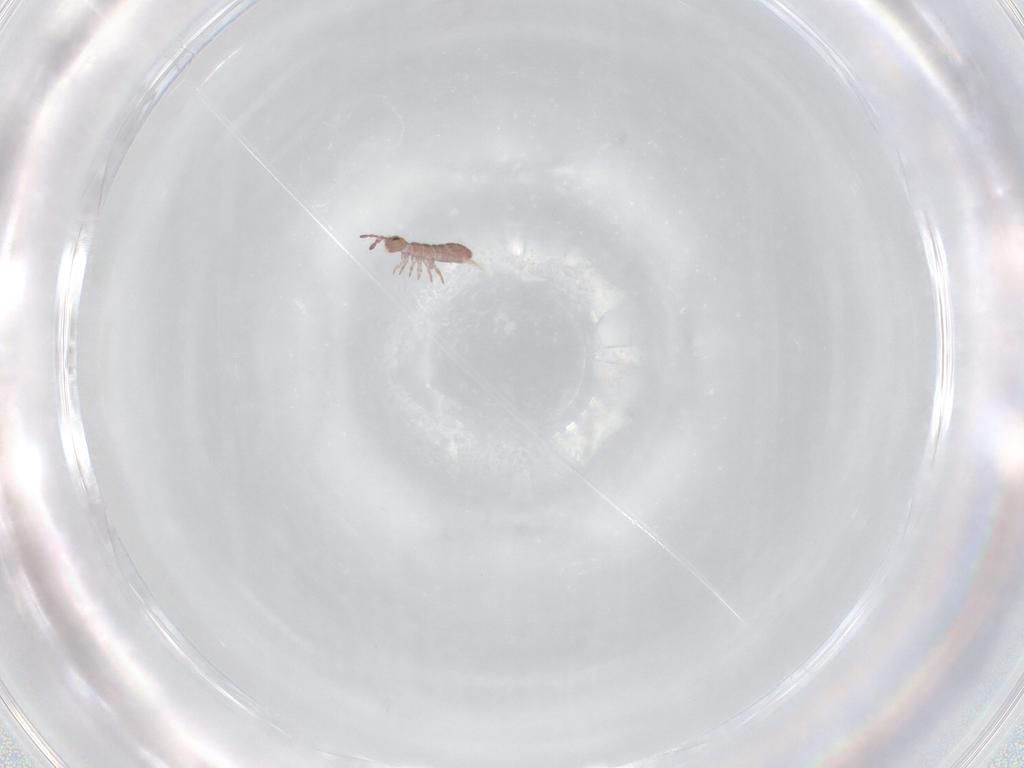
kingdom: Animalia
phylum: Arthropoda
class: Collembola
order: Entomobryomorpha
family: Isotomidae
